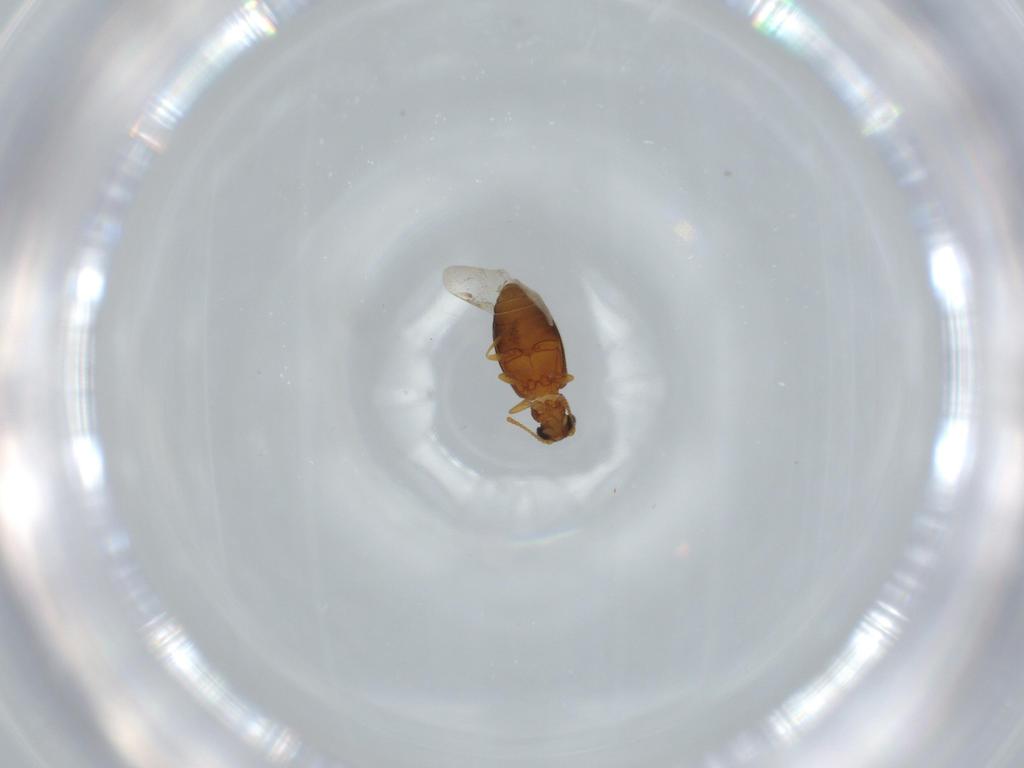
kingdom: Animalia
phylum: Arthropoda
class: Insecta
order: Coleoptera
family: Aderidae
